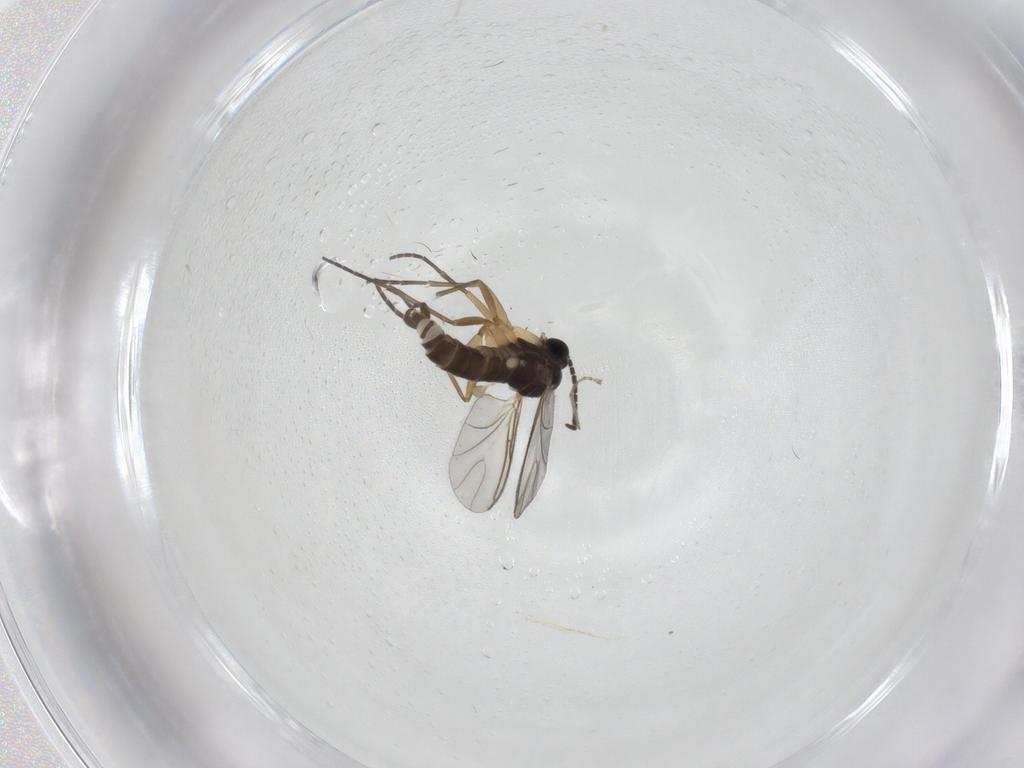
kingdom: Animalia
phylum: Arthropoda
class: Insecta
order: Diptera
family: Sciaridae
